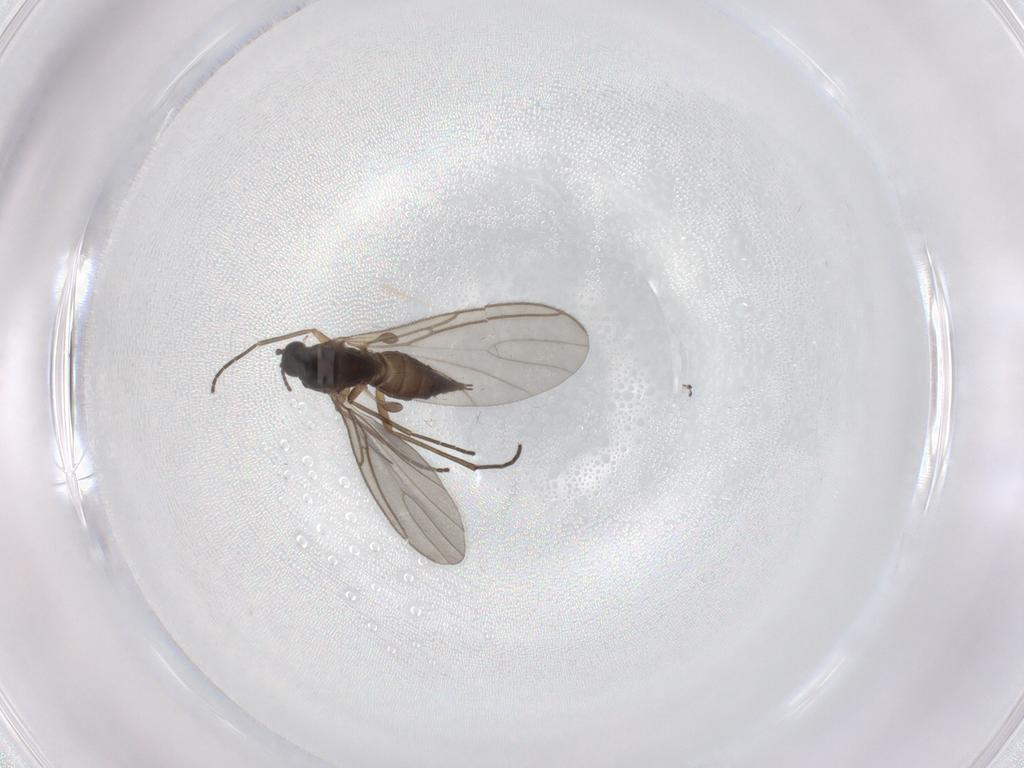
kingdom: Animalia
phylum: Arthropoda
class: Insecta
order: Diptera
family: Sciaridae
